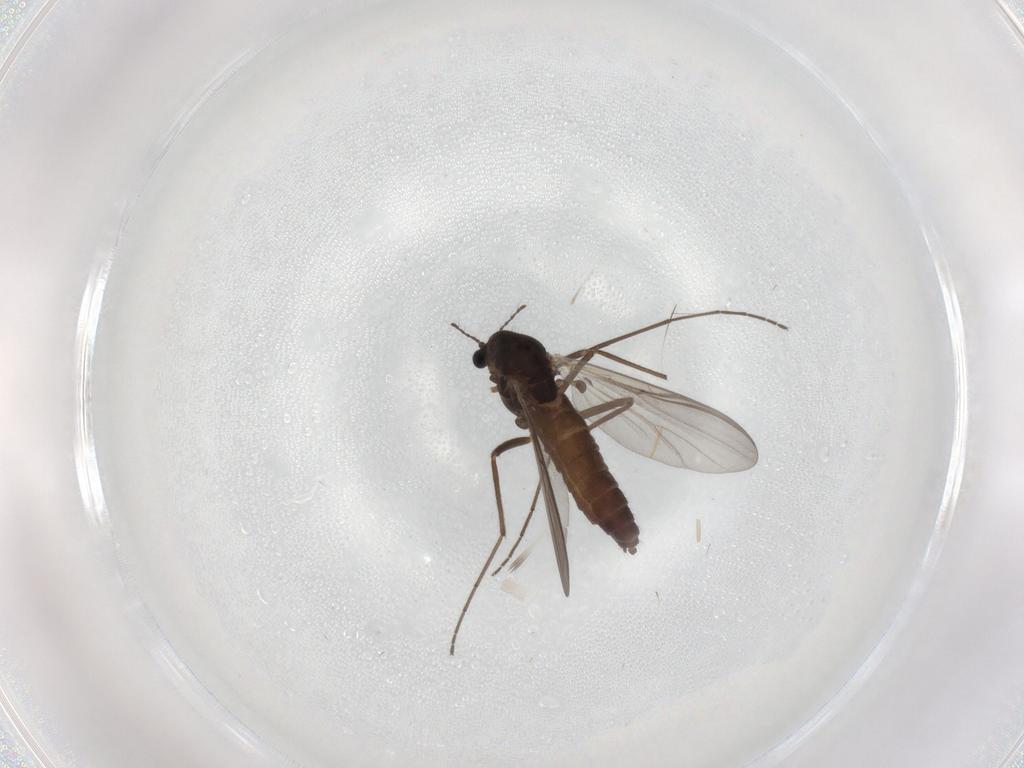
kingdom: Animalia
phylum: Arthropoda
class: Insecta
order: Diptera
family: Chironomidae
